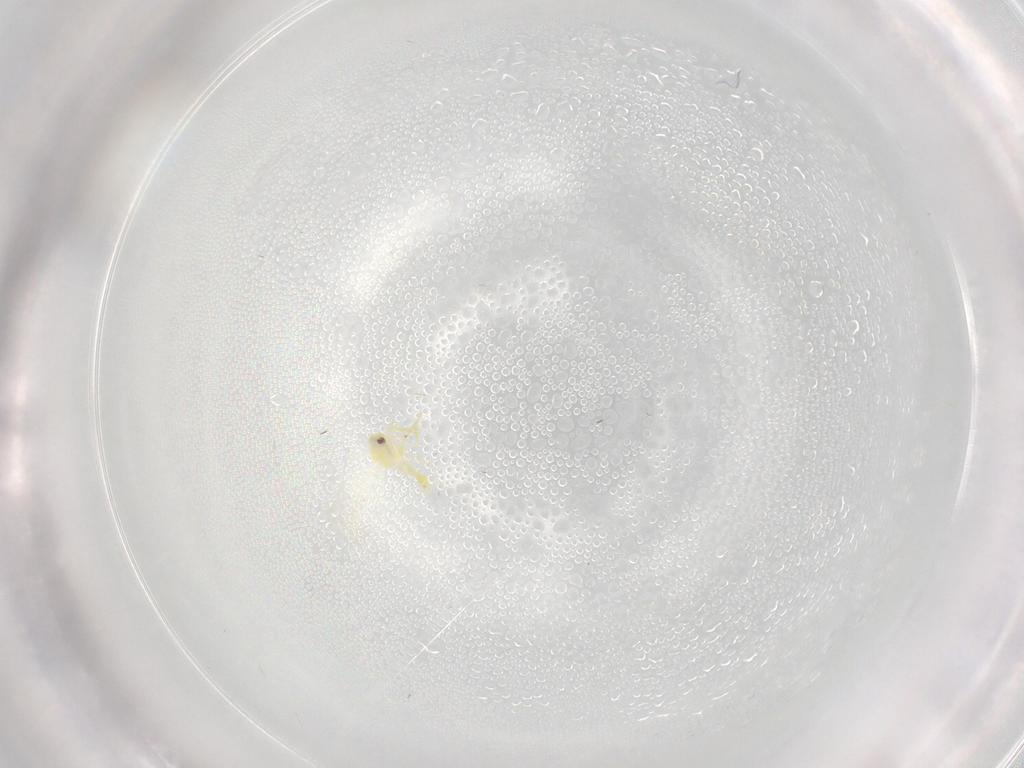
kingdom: Animalia
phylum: Arthropoda
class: Insecta
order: Hemiptera
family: Aleyrodidae
